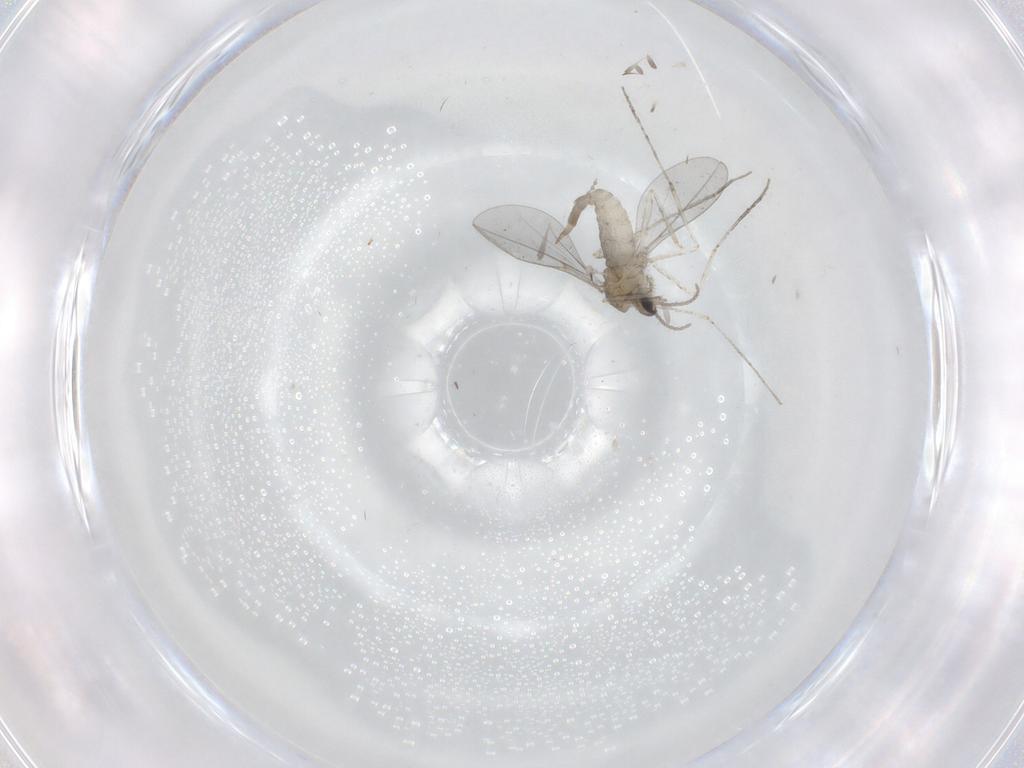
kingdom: Animalia
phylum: Arthropoda
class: Insecta
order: Diptera
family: Cecidomyiidae
